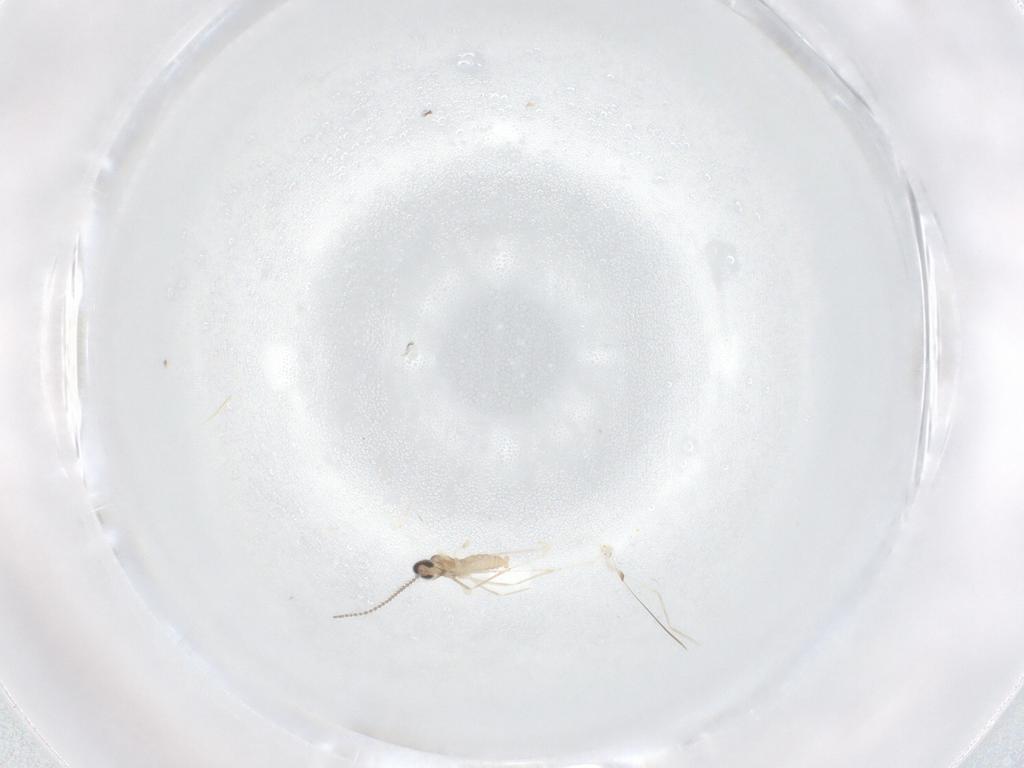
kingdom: Animalia
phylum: Arthropoda
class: Insecta
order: Diptera
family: Cecidomyiidae
